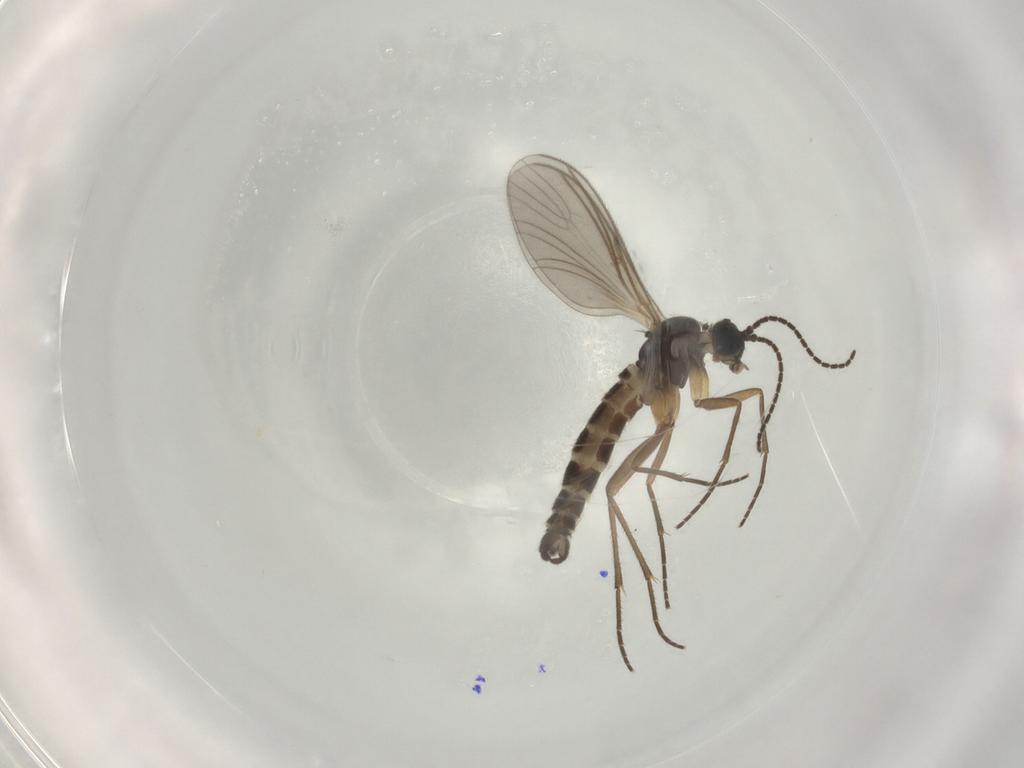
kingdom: Animalia
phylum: Arthropoda
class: Insecta
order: Diptera
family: Sciaridae
